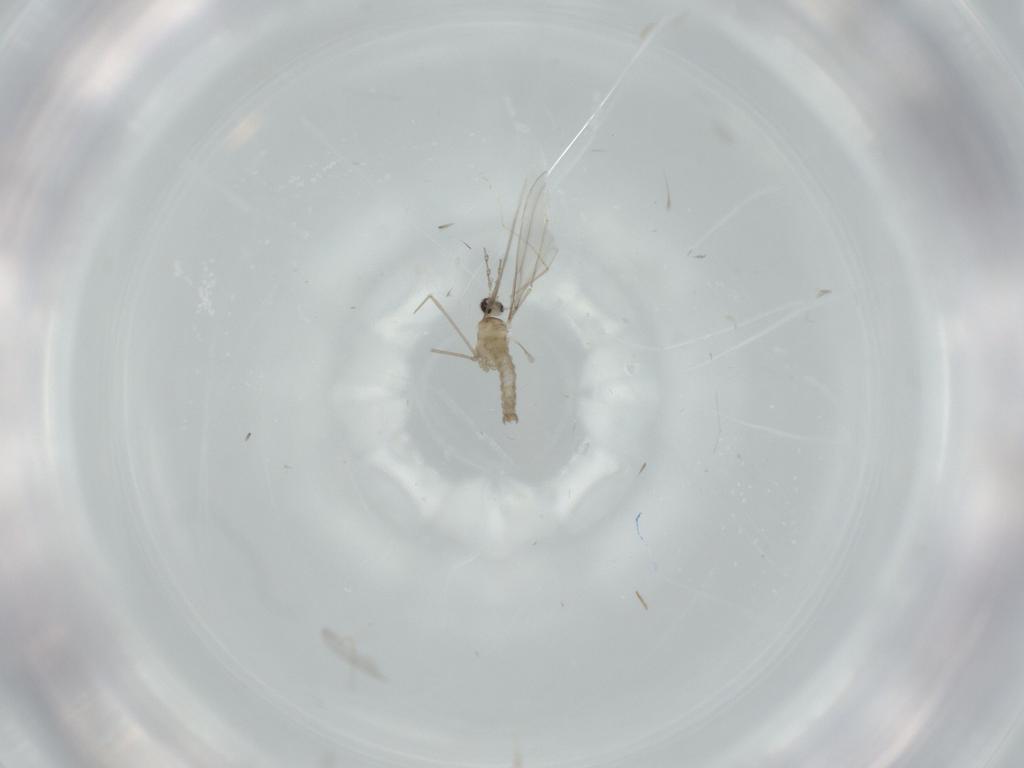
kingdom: Animalia
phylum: Arthropoda
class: Insecta
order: Diptera
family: Cecidomyiidae
